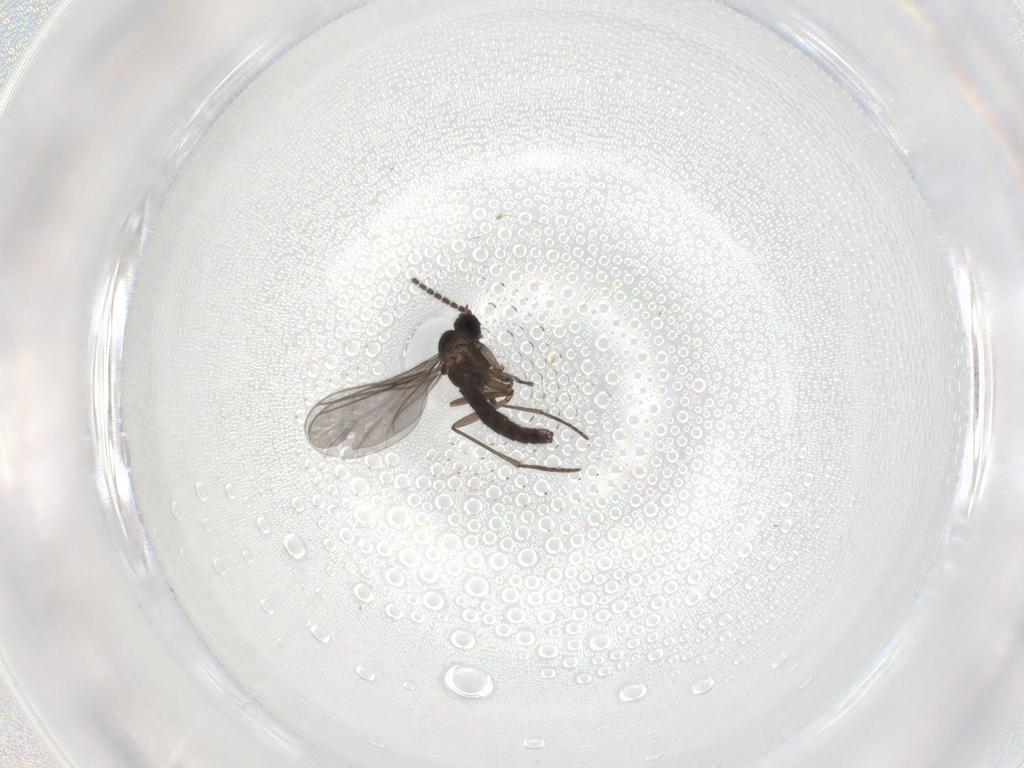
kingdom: Animalia
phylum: Arthropoda
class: Insecta
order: Diptera
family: Sciaridae
